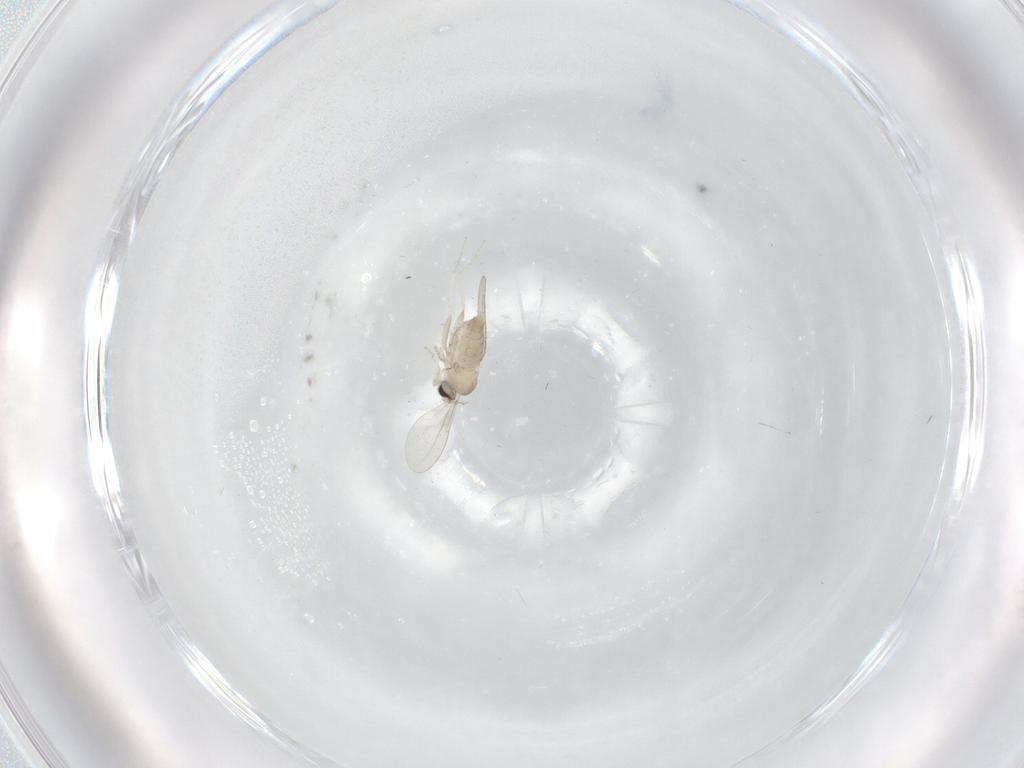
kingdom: Animalia
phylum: Arthropoda
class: Insecta
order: Diptera
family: Cecidomyiidae
